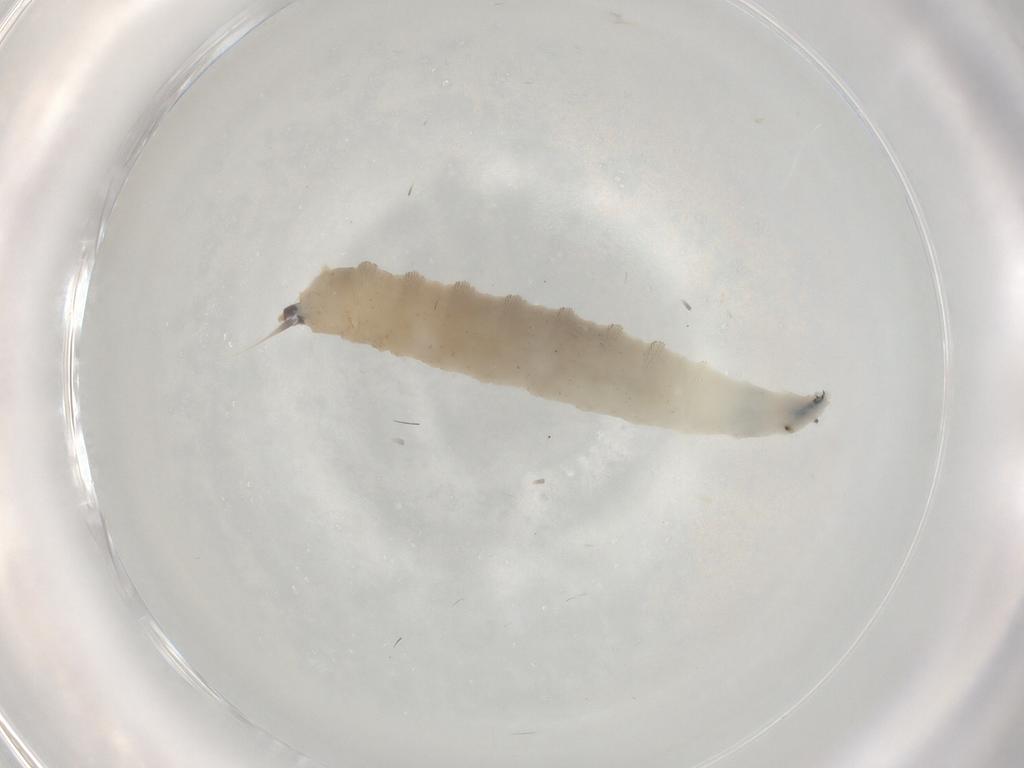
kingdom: Animalia
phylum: Arthropoda
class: Insecta
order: Diptera
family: Drosophilidae
